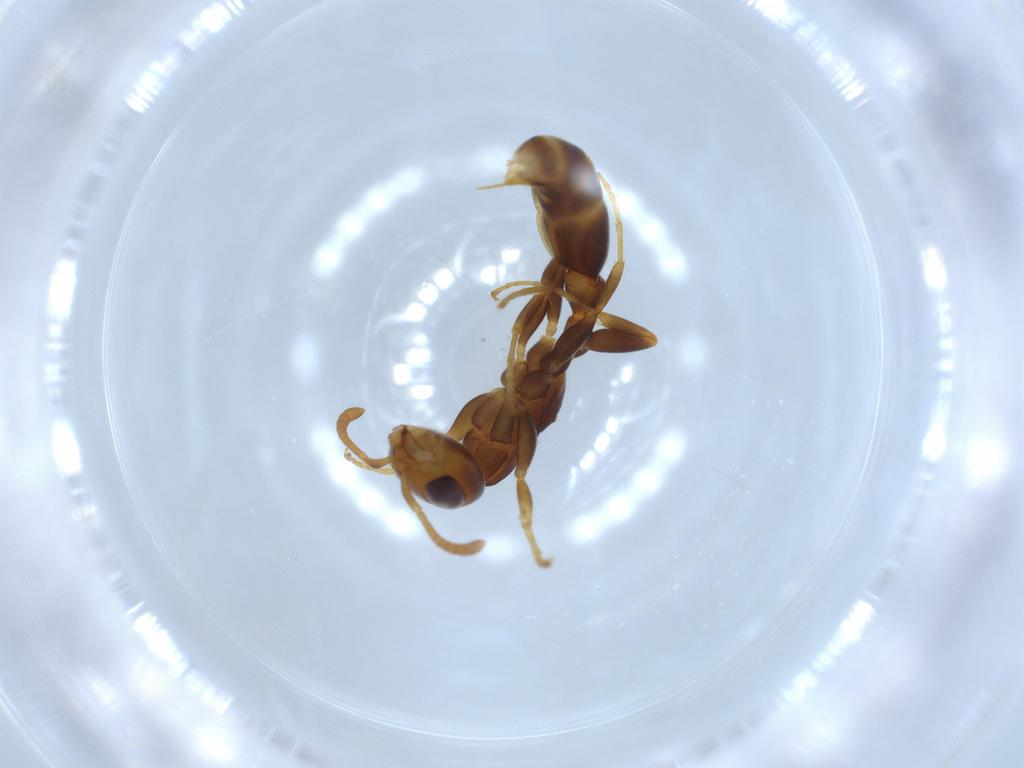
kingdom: Animalia
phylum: Arthropoda
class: Insecta
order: Hymenoptera
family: Formicidae
